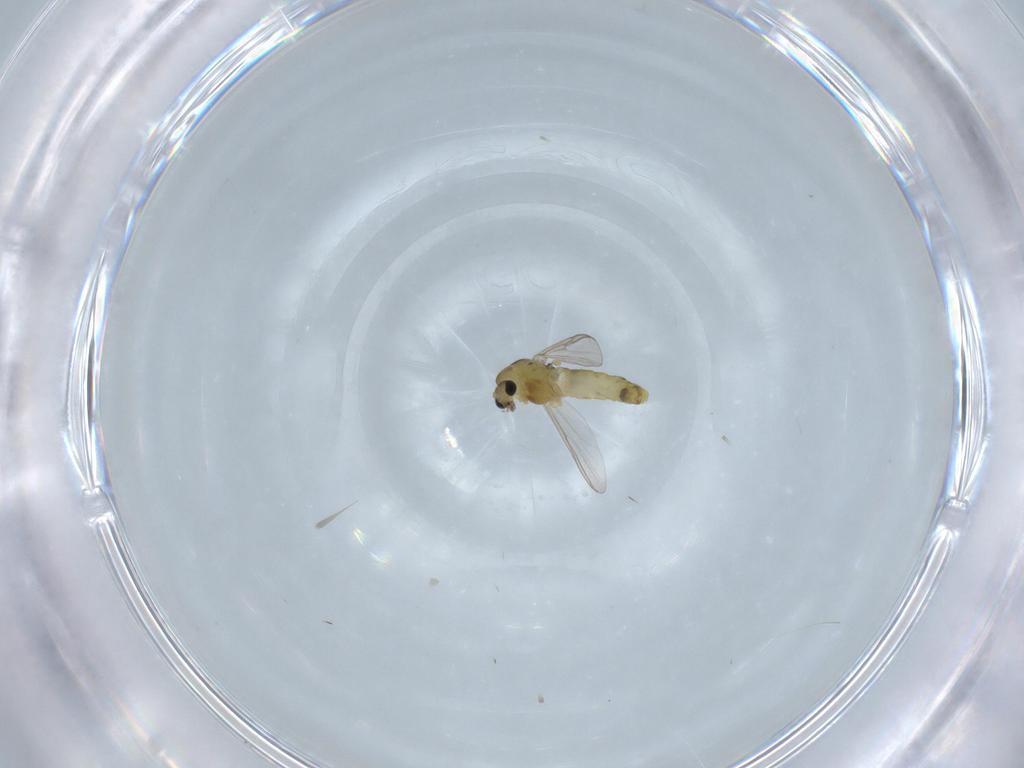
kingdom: Animalia
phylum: Arthropoda
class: Insecta
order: Diptera
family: Chironomidae
